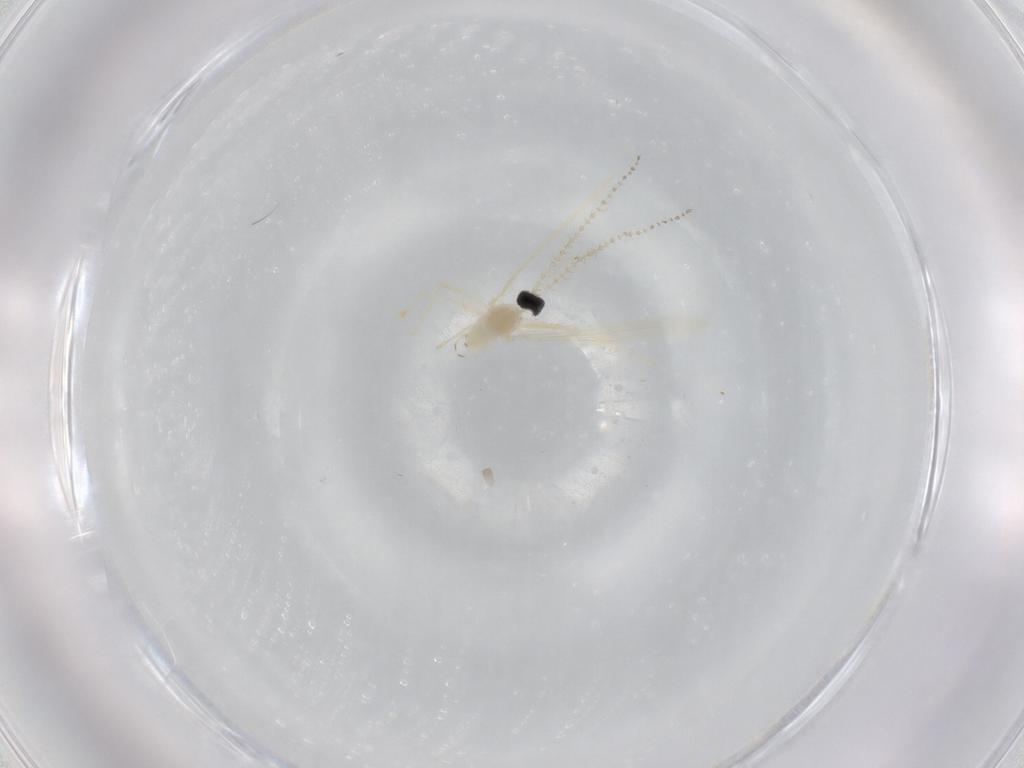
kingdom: Animalia
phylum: Arthropoda
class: Insecta
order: Diptera
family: Cecidomyiidae
